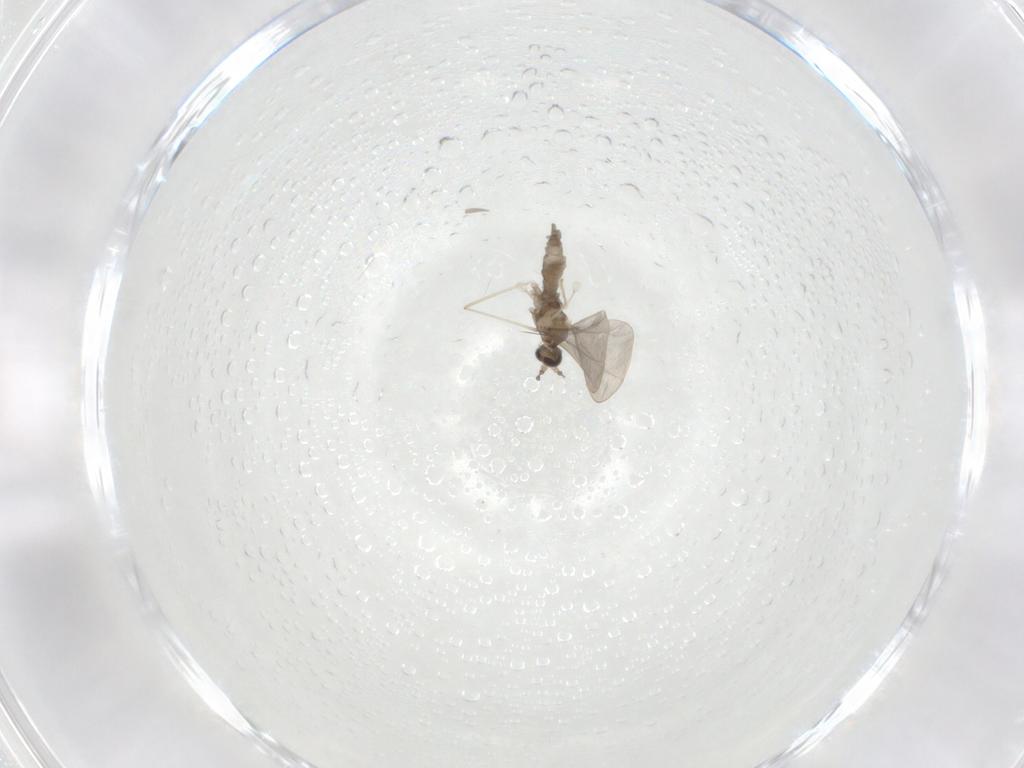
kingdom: Animalia
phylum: Arthropoda
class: Insecta
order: Diptera
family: Cecidomyiidae
